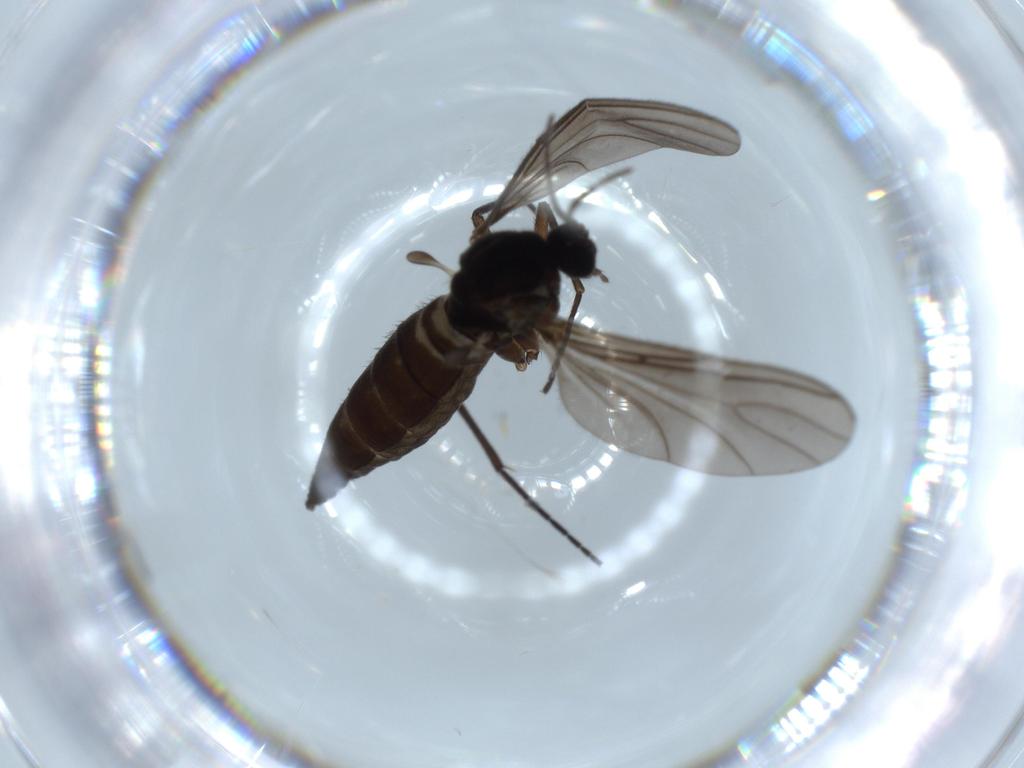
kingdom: Animalia
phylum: Arthropoda
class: Insecta
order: Diptera
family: Sciaridae
